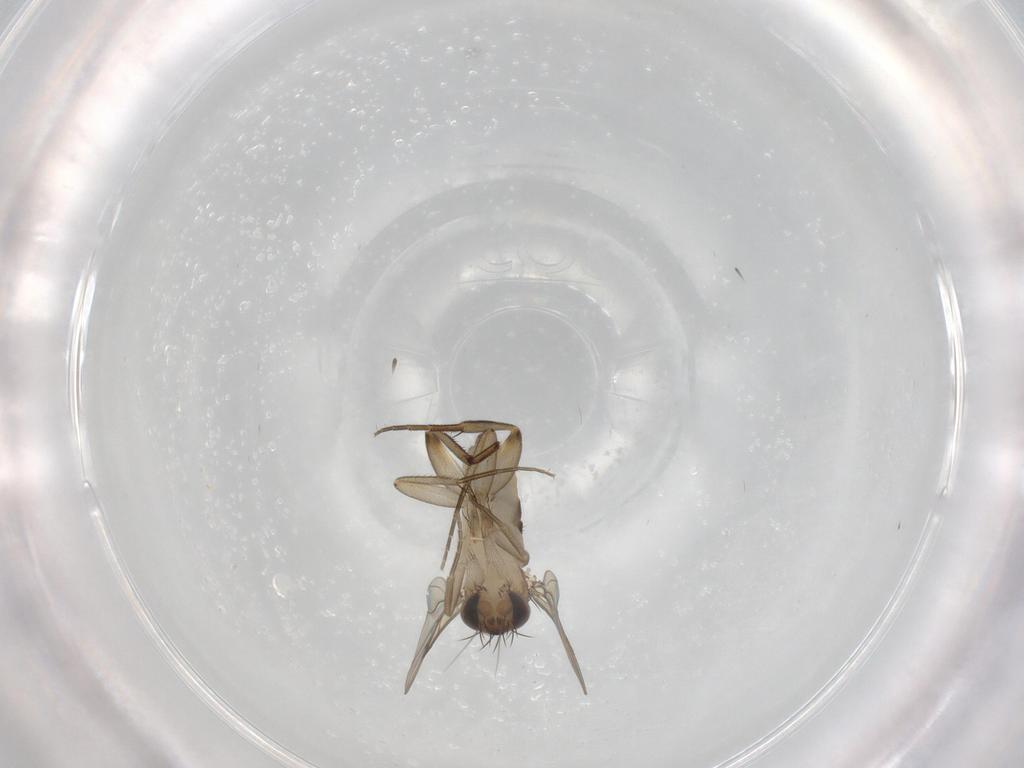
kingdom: Animalia
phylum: Arthropoda
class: Insecta
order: Diptera
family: Phoridae
